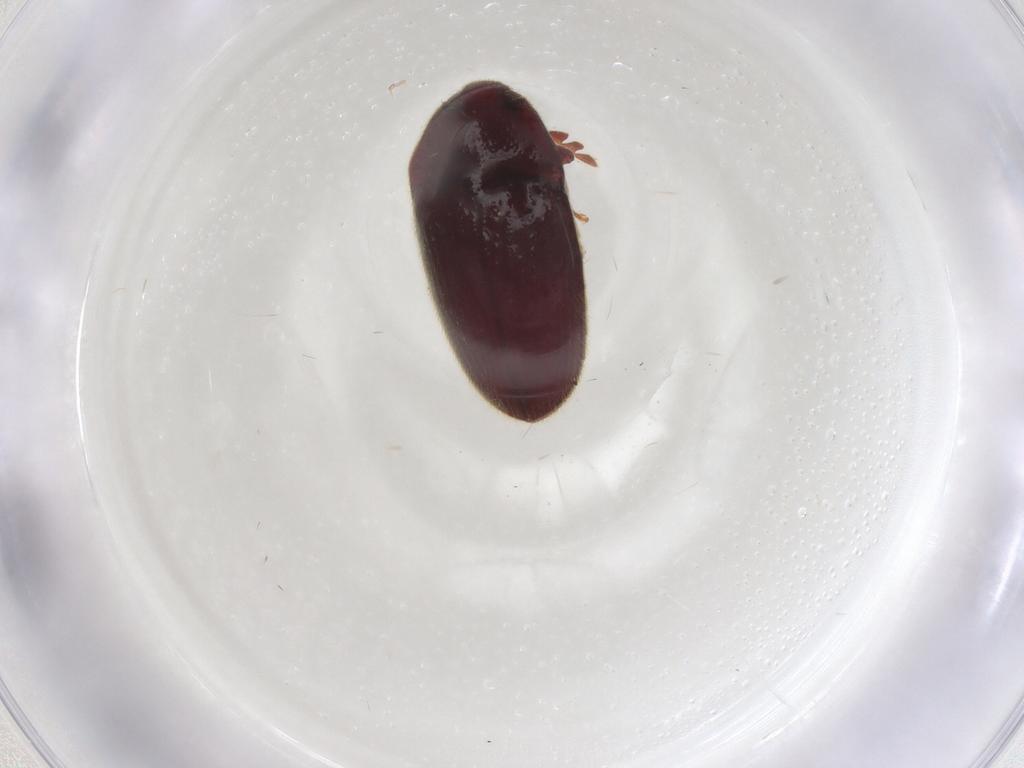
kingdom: Animalia
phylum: Arthropoda
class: Insecta
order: Coleoptera
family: Throscidae
